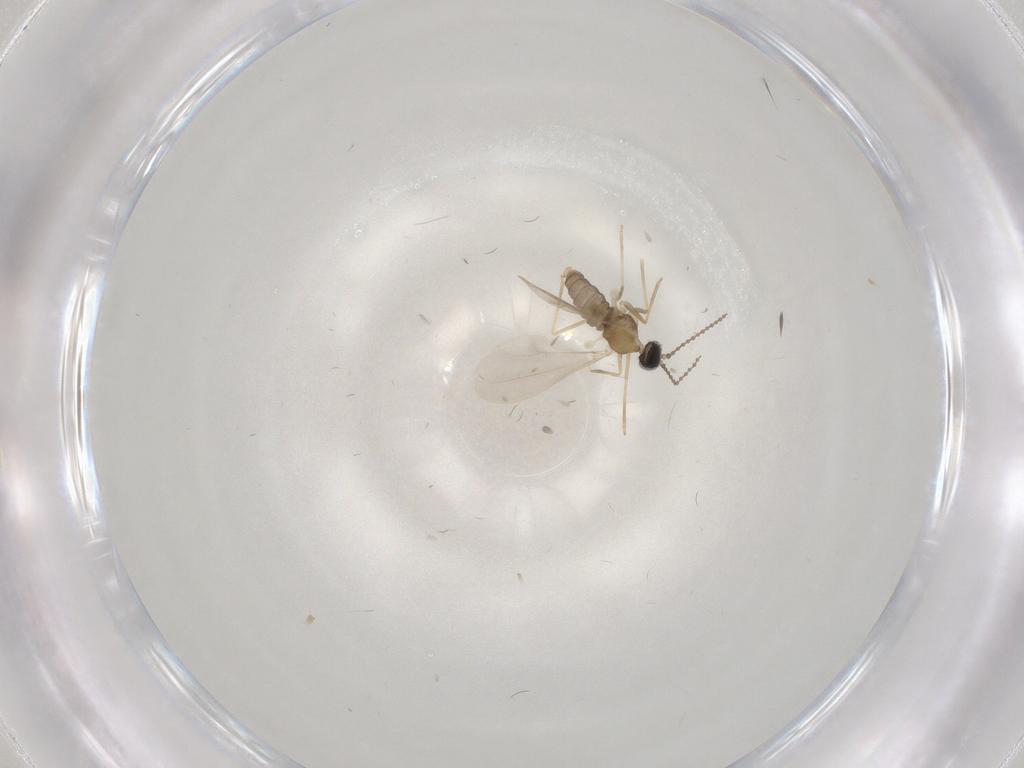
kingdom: Animalia
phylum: Arthropoda
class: Insecta
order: Diptera
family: Cecidomyiidae
